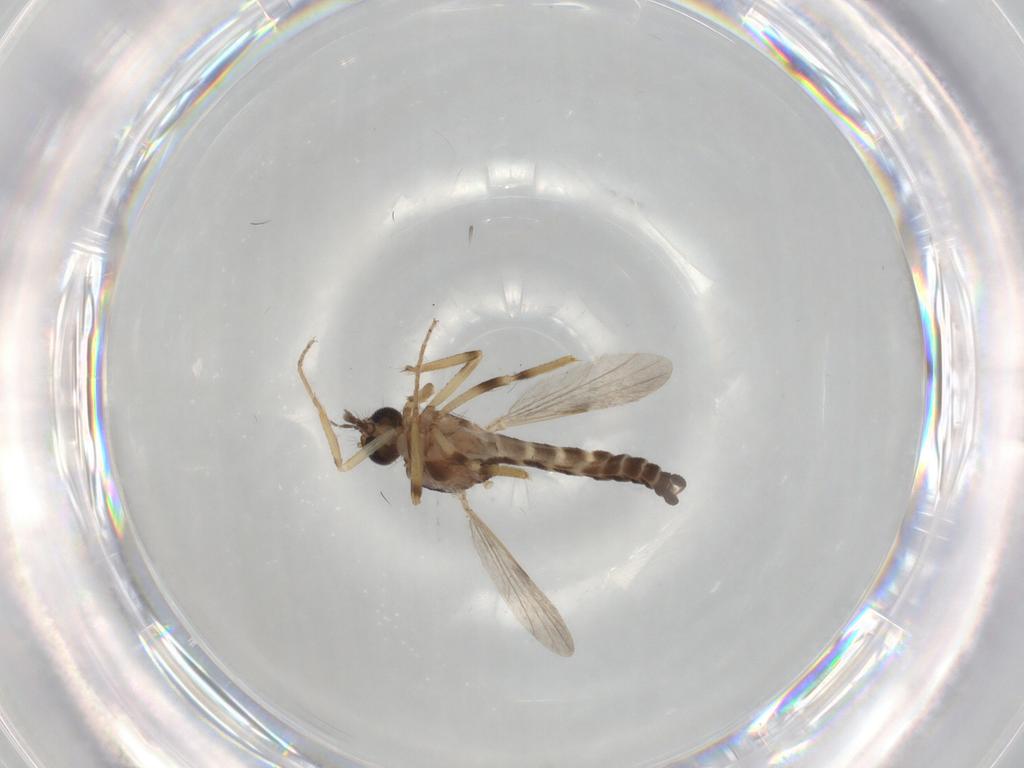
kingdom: Animalia
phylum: Arthropoda
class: Insecta
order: Diptera
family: Ceratopogonidae
